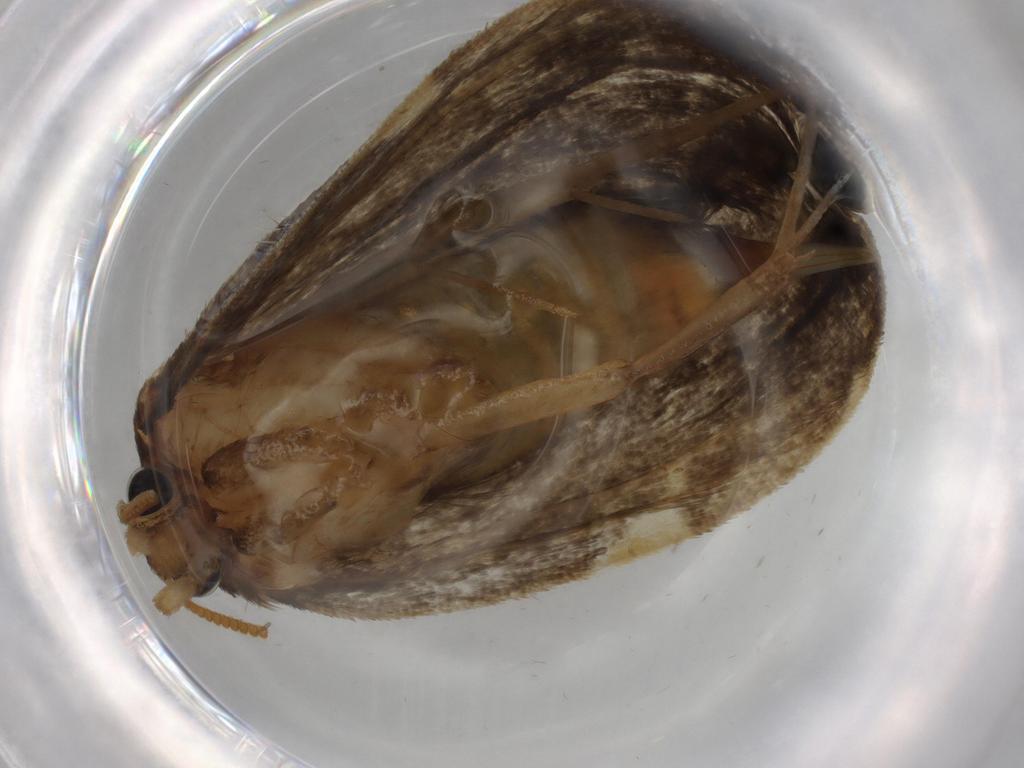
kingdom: Animalia
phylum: Arthropoda
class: Insecta
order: Lepidoptera
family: Psychidae
